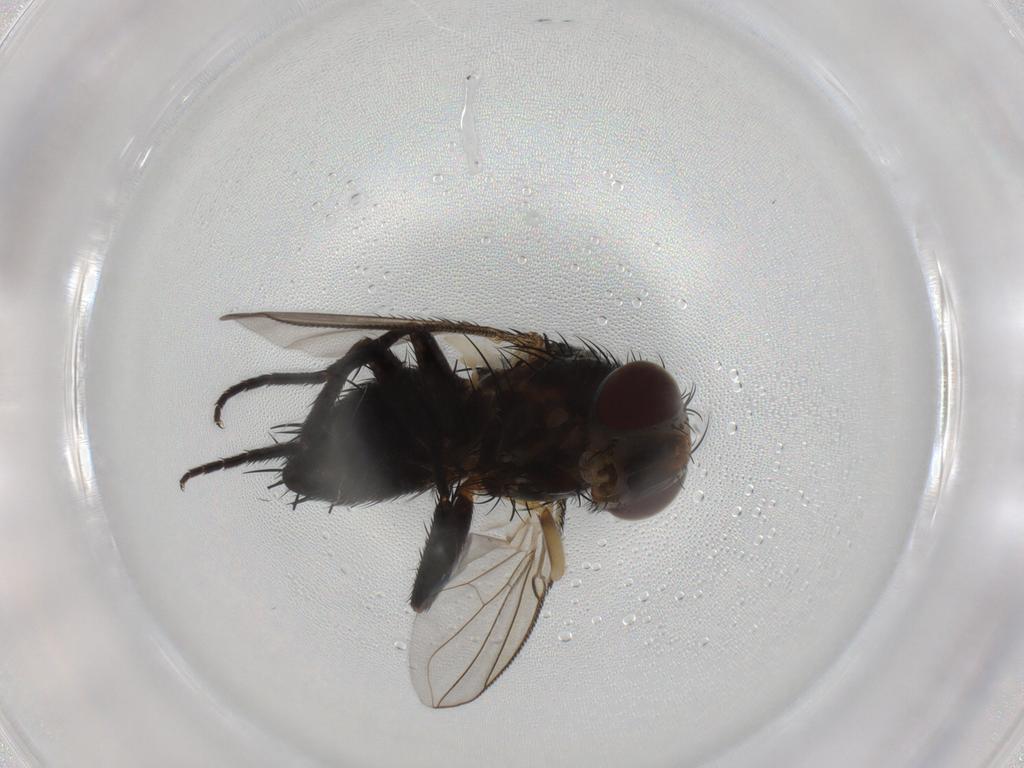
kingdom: Animalia
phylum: Arthropoda
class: Insecta
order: Diptera
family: Tachinidae
